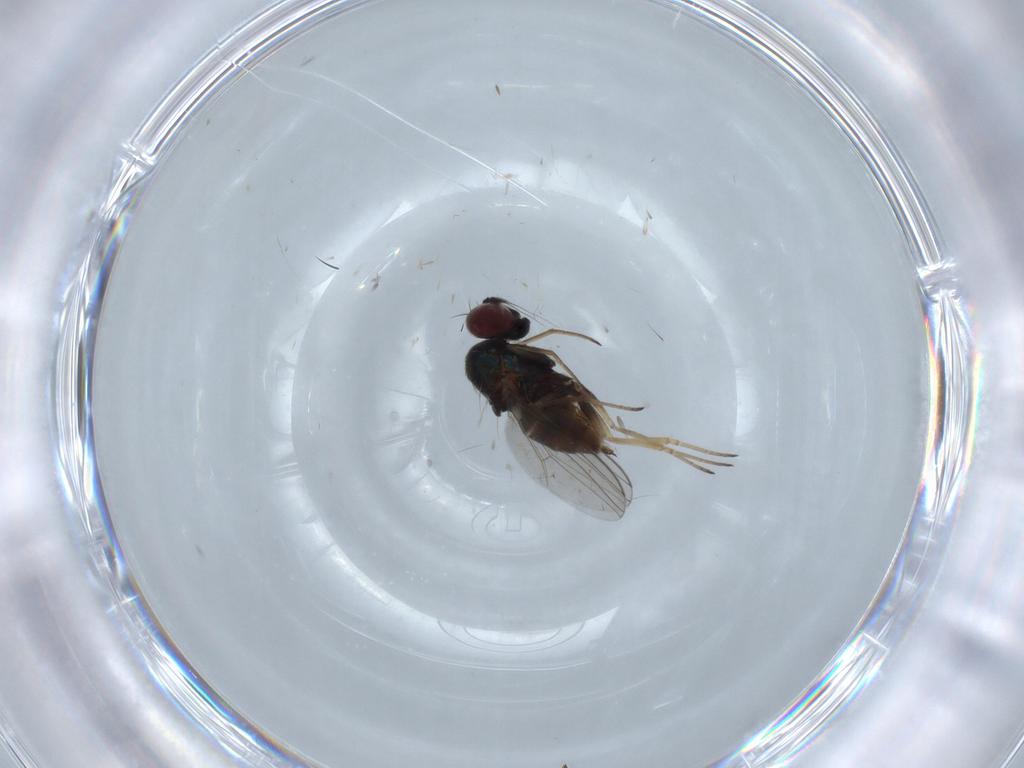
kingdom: Animalia
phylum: Arthropoda
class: Insecta
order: Diptera
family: Dolichopodidae
